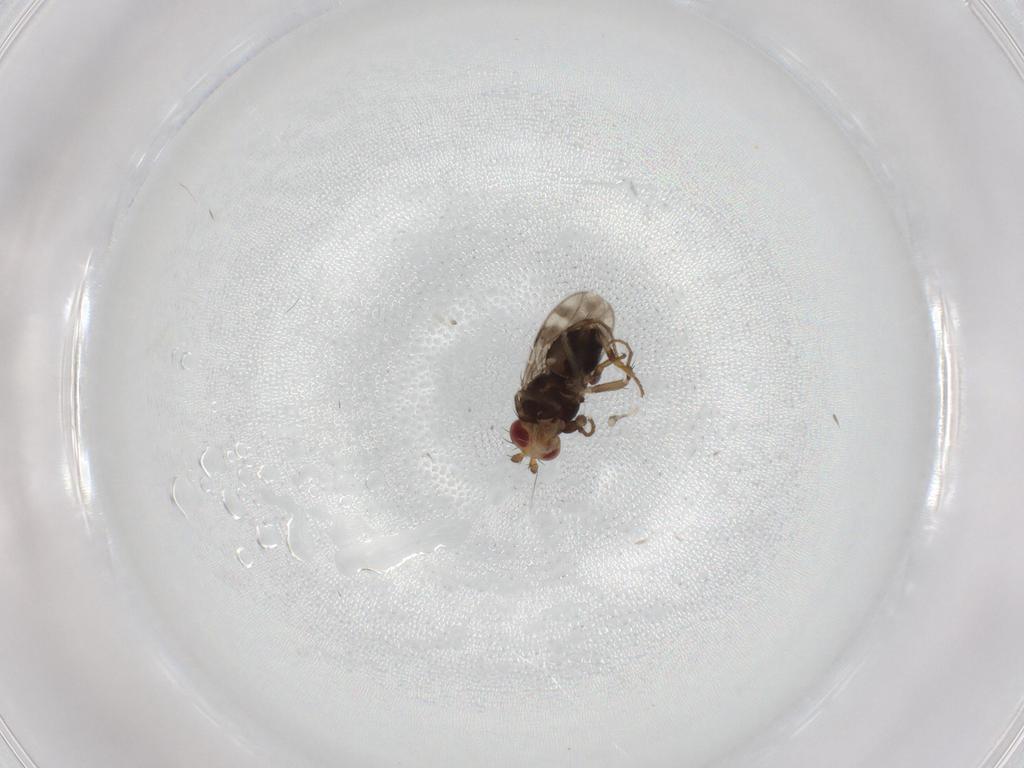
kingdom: Animalia
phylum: Arthropoda
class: Insecta
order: Diptera
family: Sphaeroceridae
